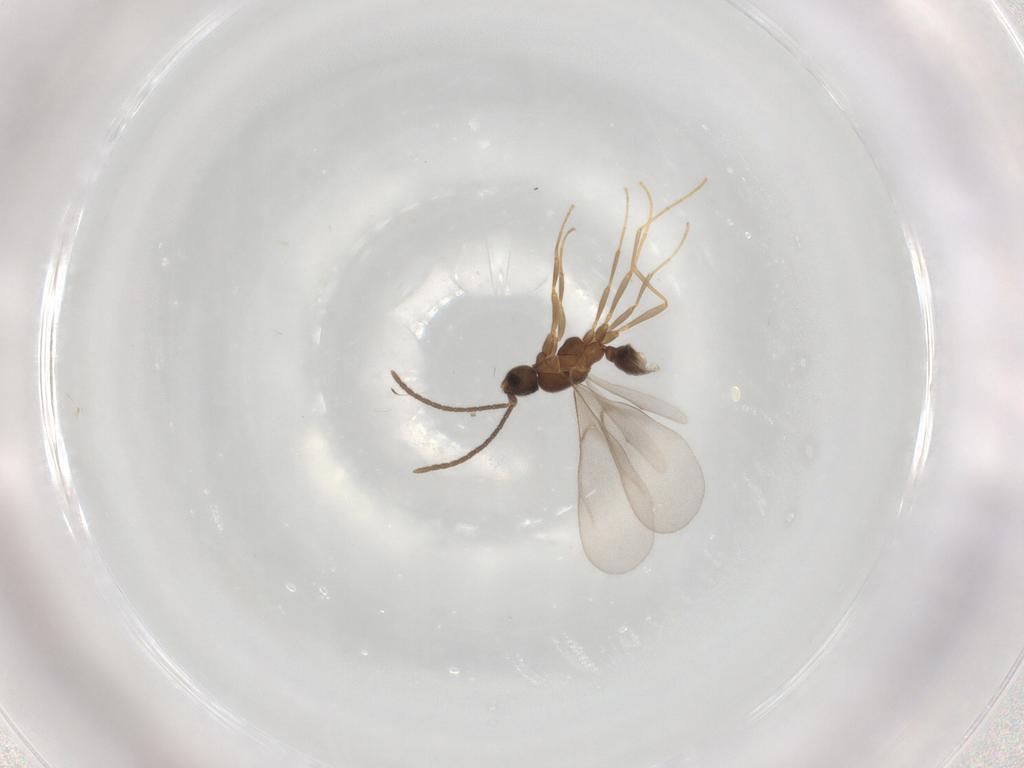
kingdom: Animalia
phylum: Arthropoda
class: Insecta
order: Hymenoptera
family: Formicidae
